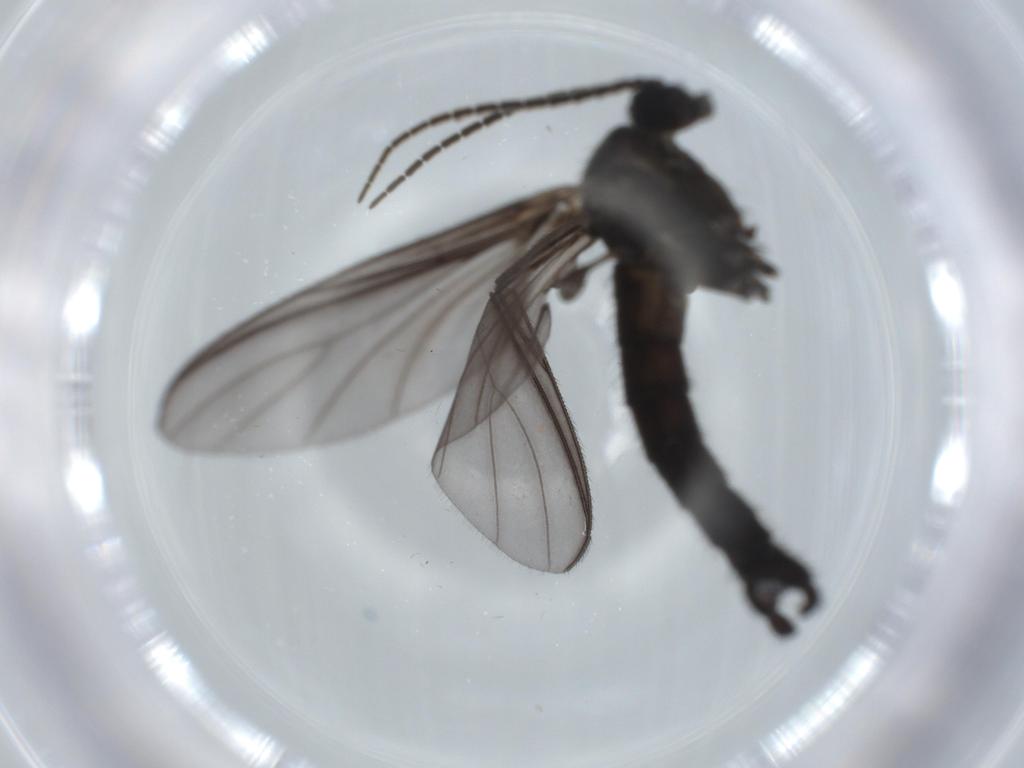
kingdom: Animalia
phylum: Arthropoda
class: Insecta
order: Diptera
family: Sciaridae
